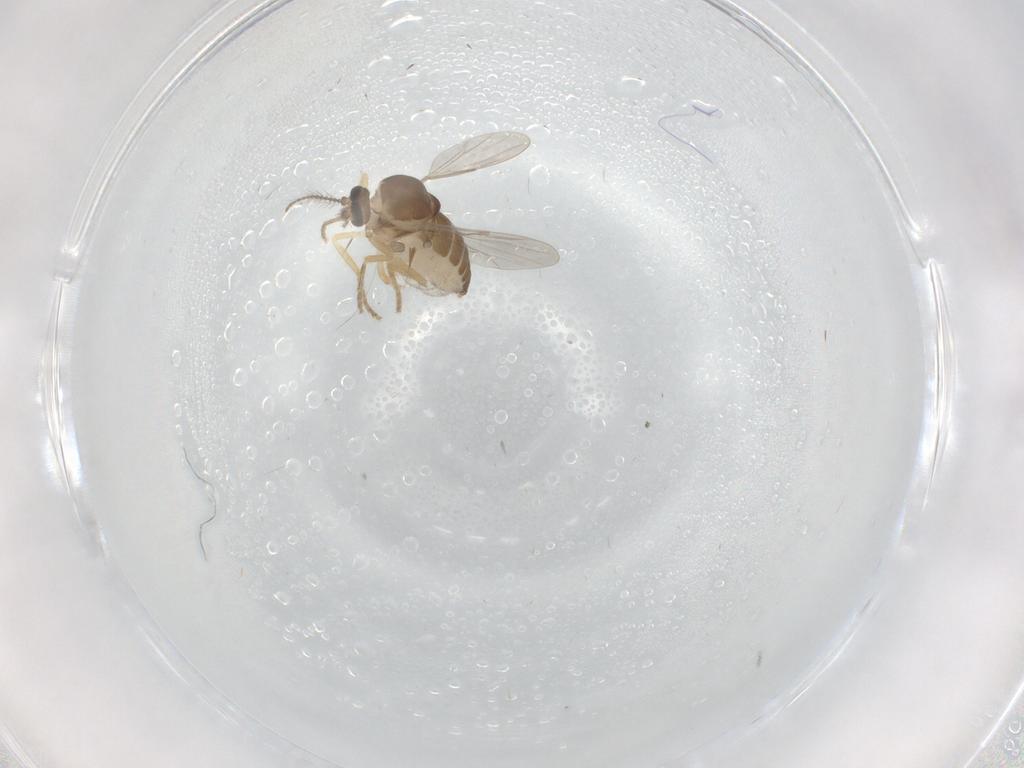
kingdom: Animalia
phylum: Arthropoda
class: Insecta
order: Diptera
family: Ceratopogonidae
